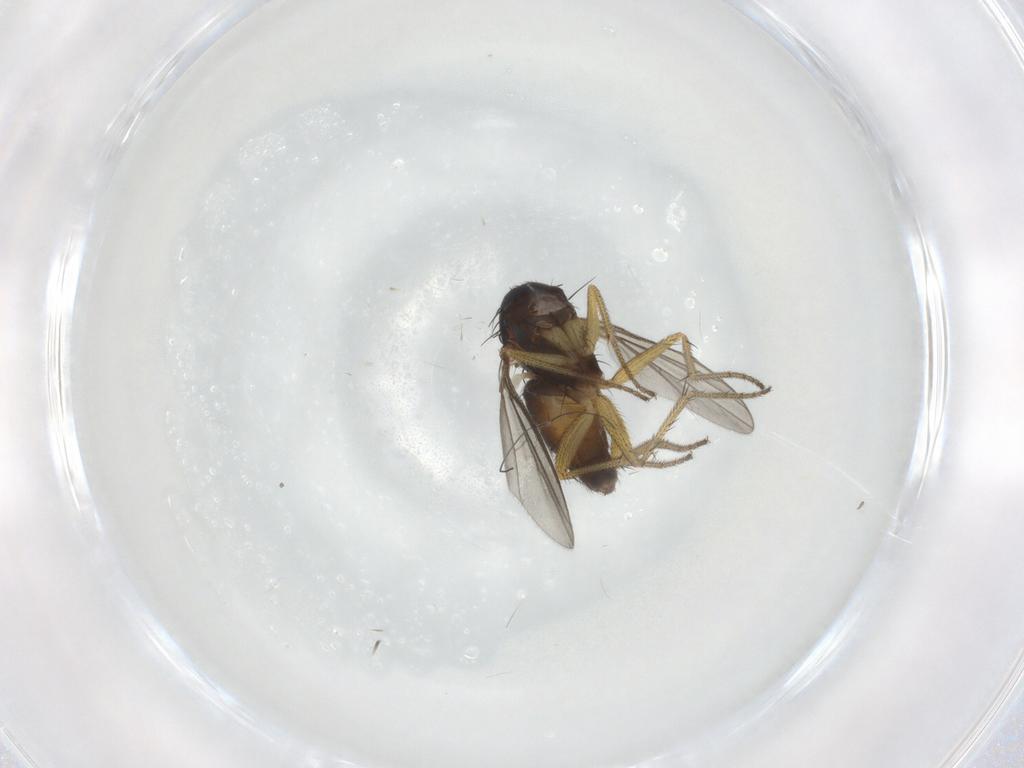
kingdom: Animalia
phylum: Arthropoda
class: Insecta
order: Diptera
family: Dolichopodidae
